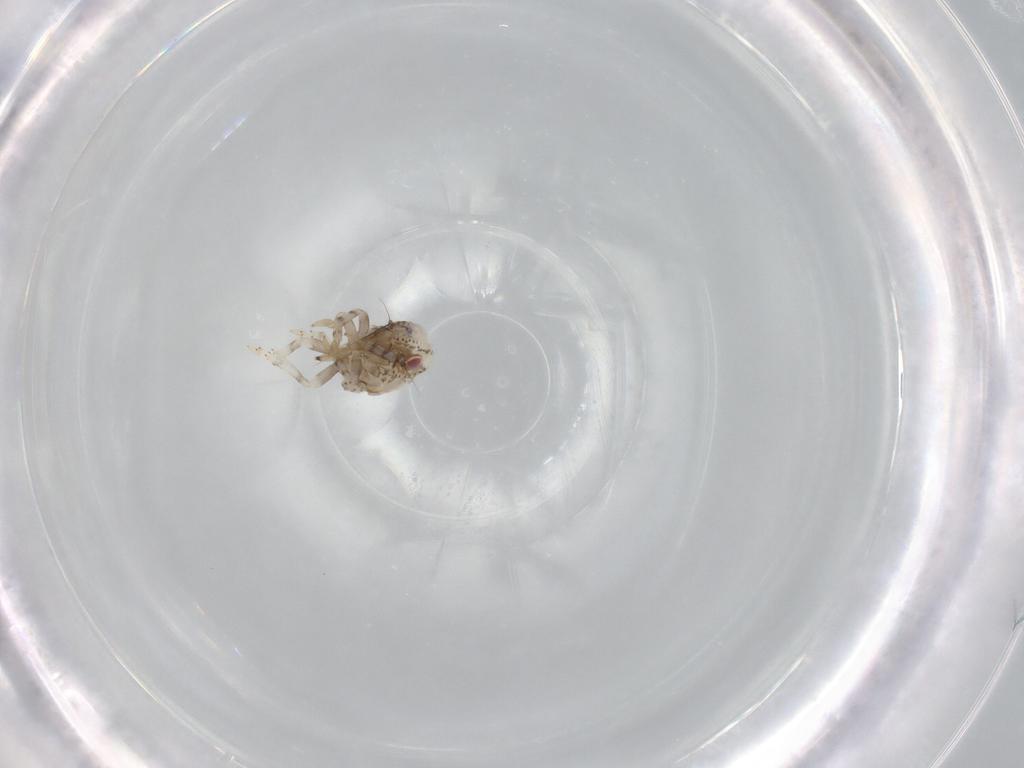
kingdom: Animalia
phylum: Arthropoda
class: Insecta
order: Hemiptera
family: Acanaloniidae
